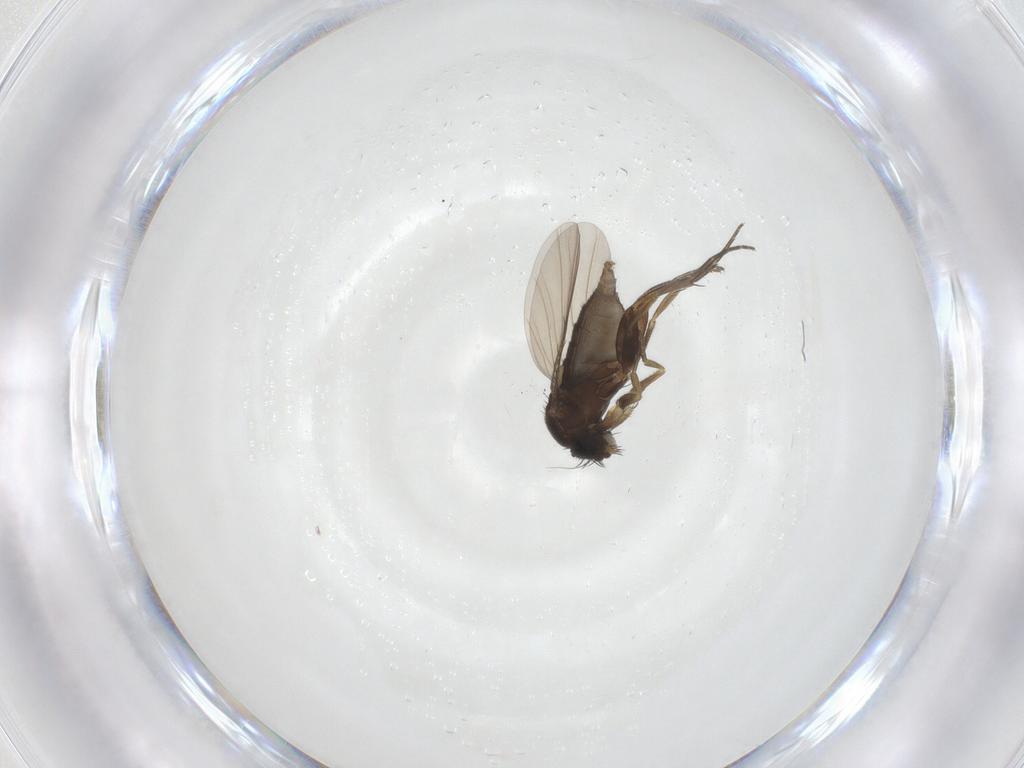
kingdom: Animalia
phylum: Arthropoda
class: Insecta
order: Diptera
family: Phoridae
